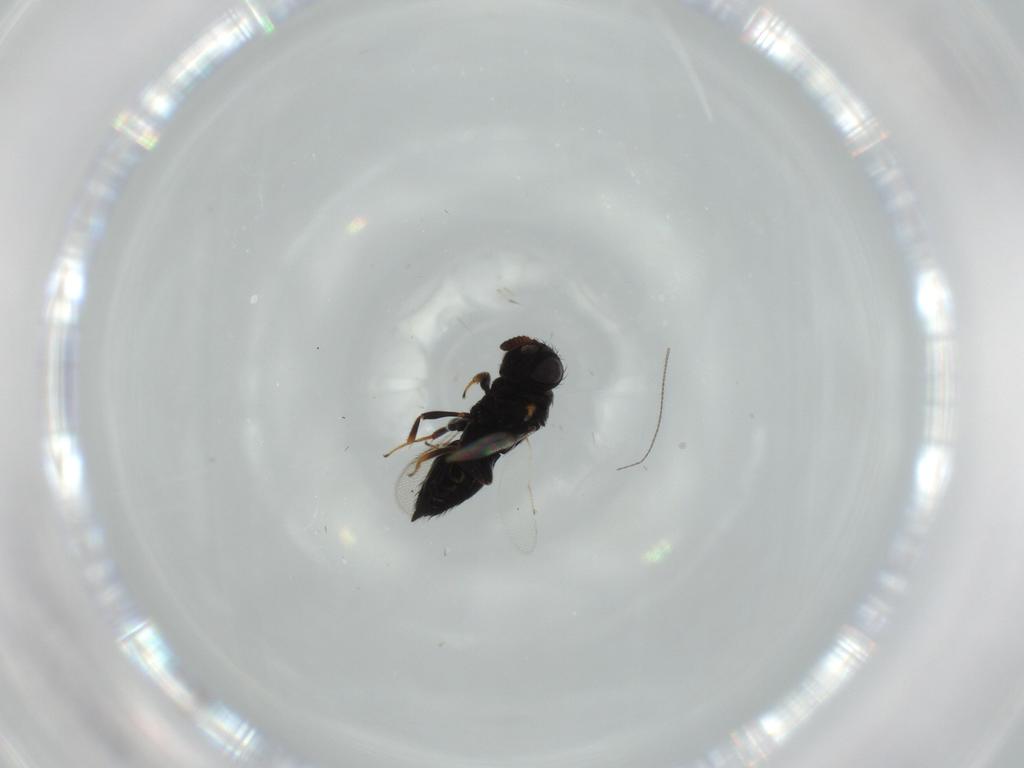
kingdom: Animalia
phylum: Arthropoda
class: Insecta
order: Psocodea
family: Lepidopsocidae
